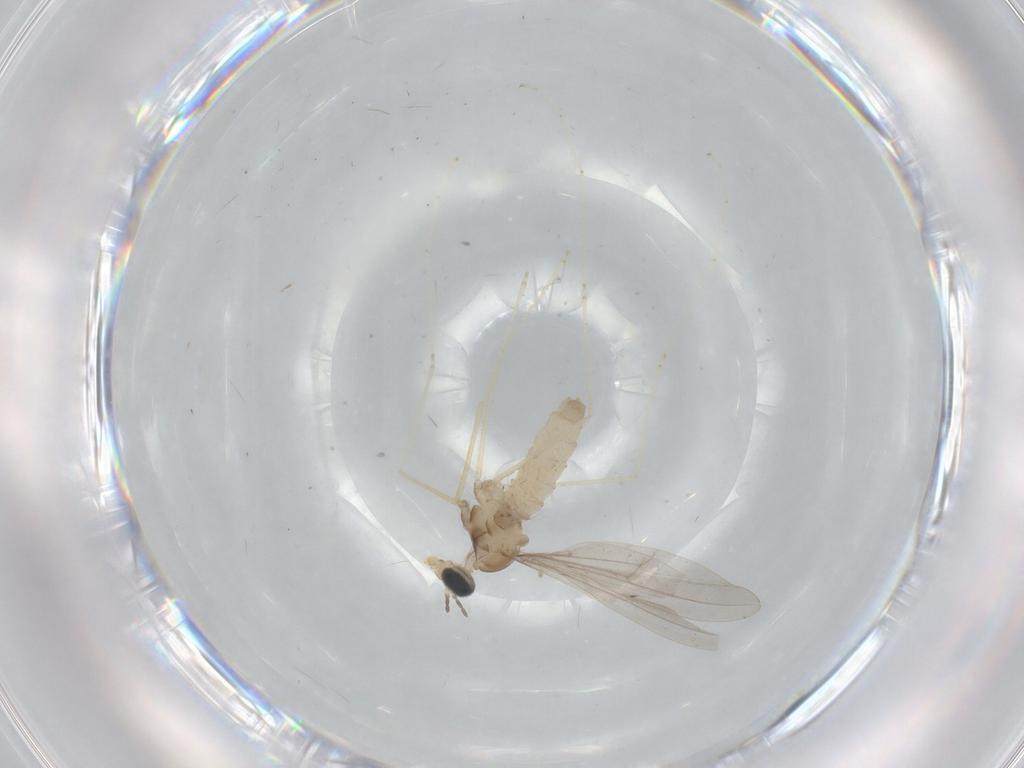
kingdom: Animalia
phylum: Arthropoda
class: Insecta
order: Diptera
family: Cecidomyiidae
